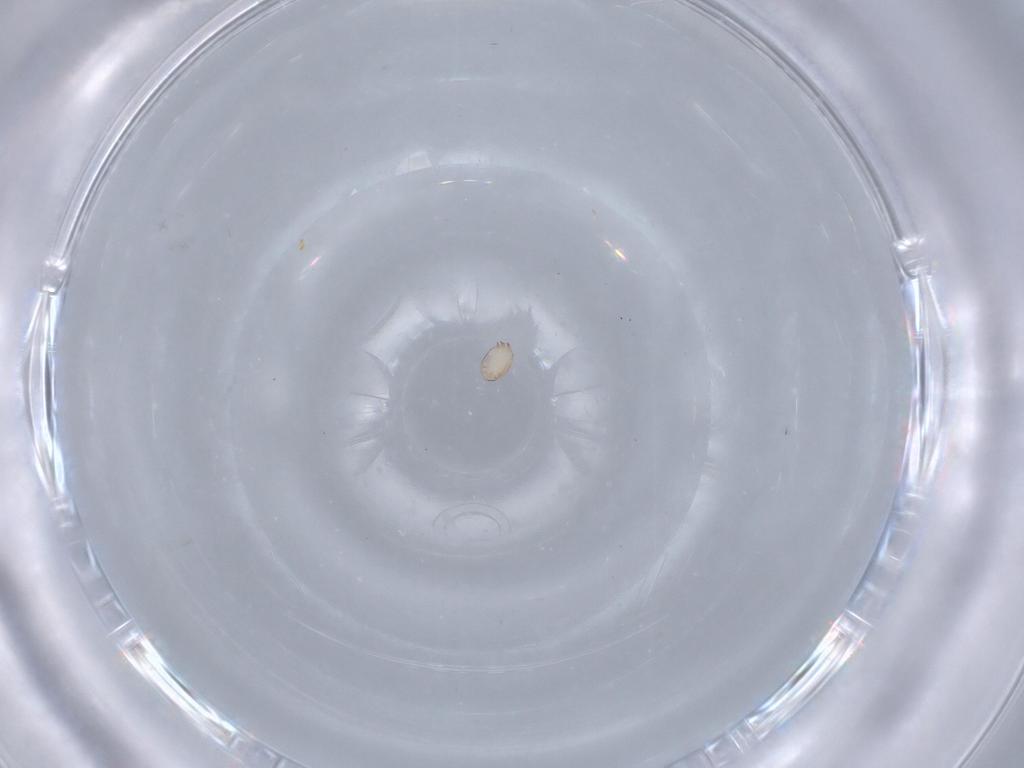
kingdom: Animalia
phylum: Arthropoda
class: Arachnida
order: Sarcoptiformes
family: Acaridae
